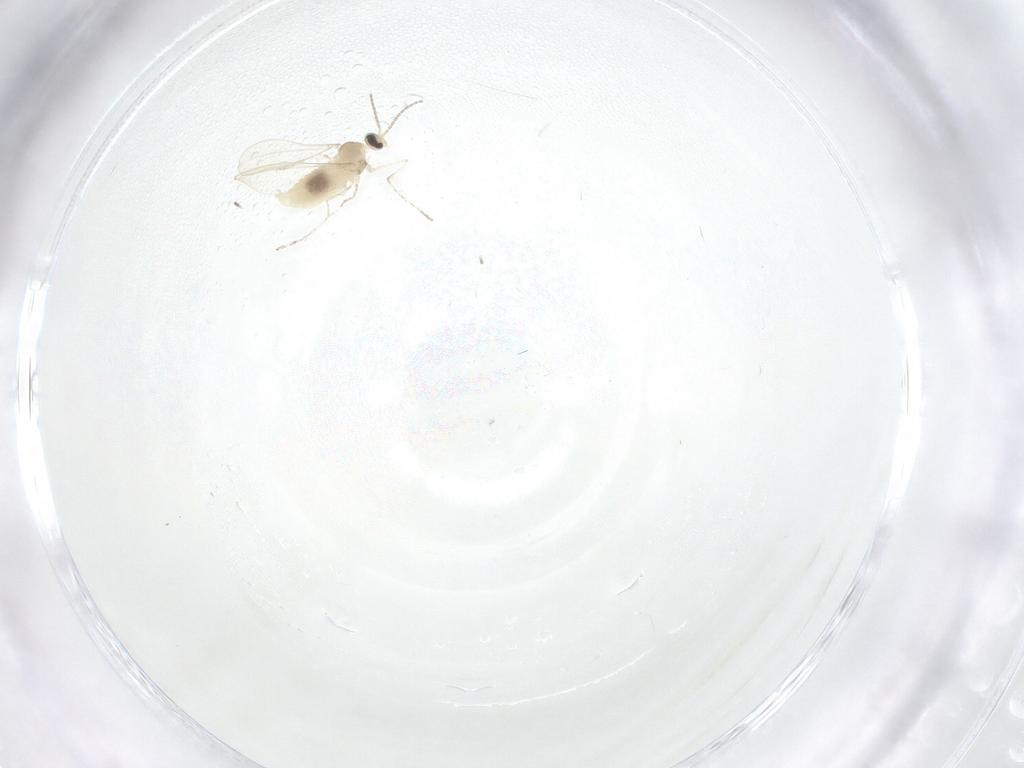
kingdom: Animalia
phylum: Arthropoda
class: Insecta
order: Diptera
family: Phoridae
